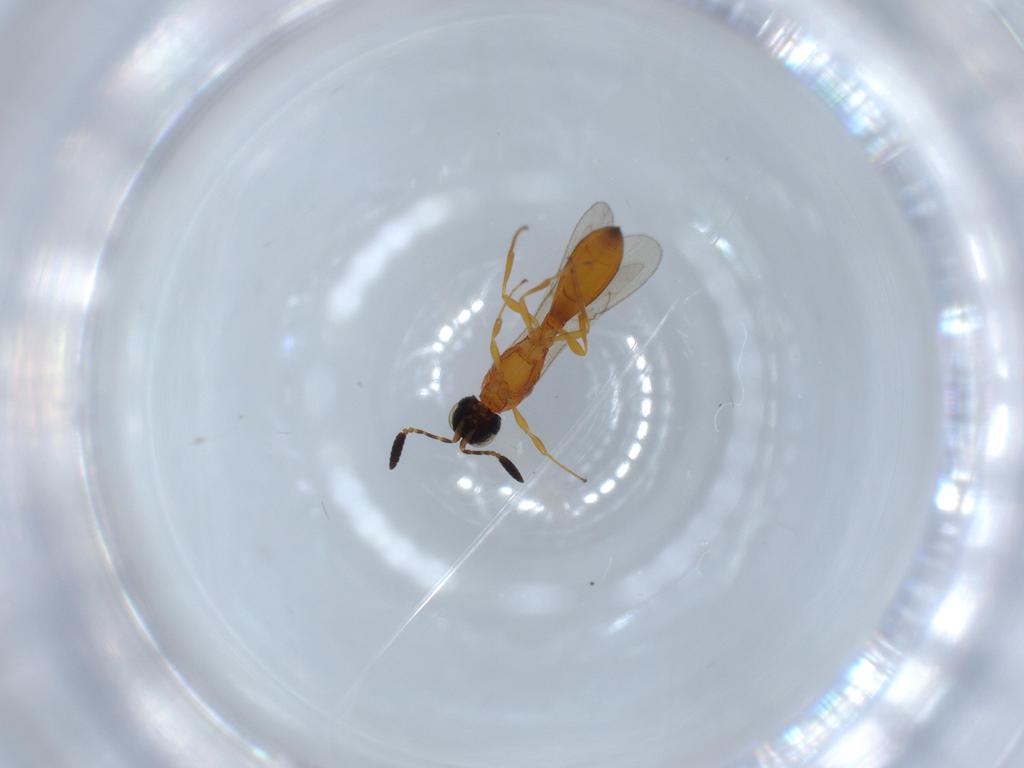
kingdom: Animalia
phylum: Arthropoda
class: Insecta
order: Hymenoptera
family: Scelionidae
